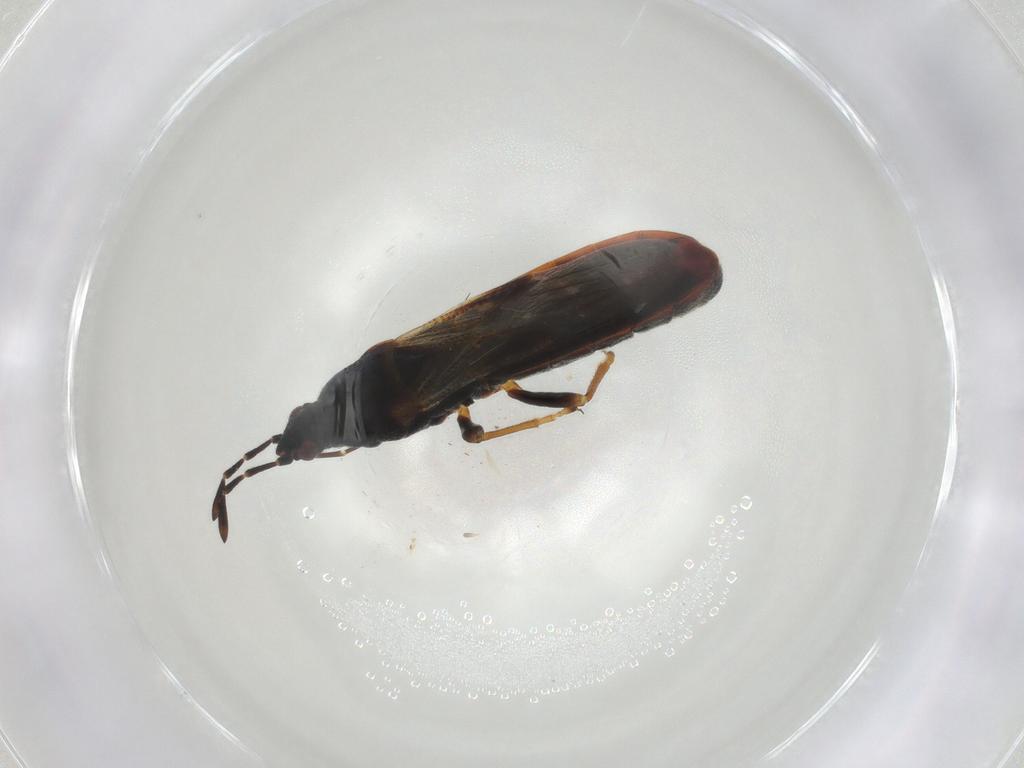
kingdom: Animalia
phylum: Arthropoda
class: Insecta
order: Hemiptera
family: Blissidae
